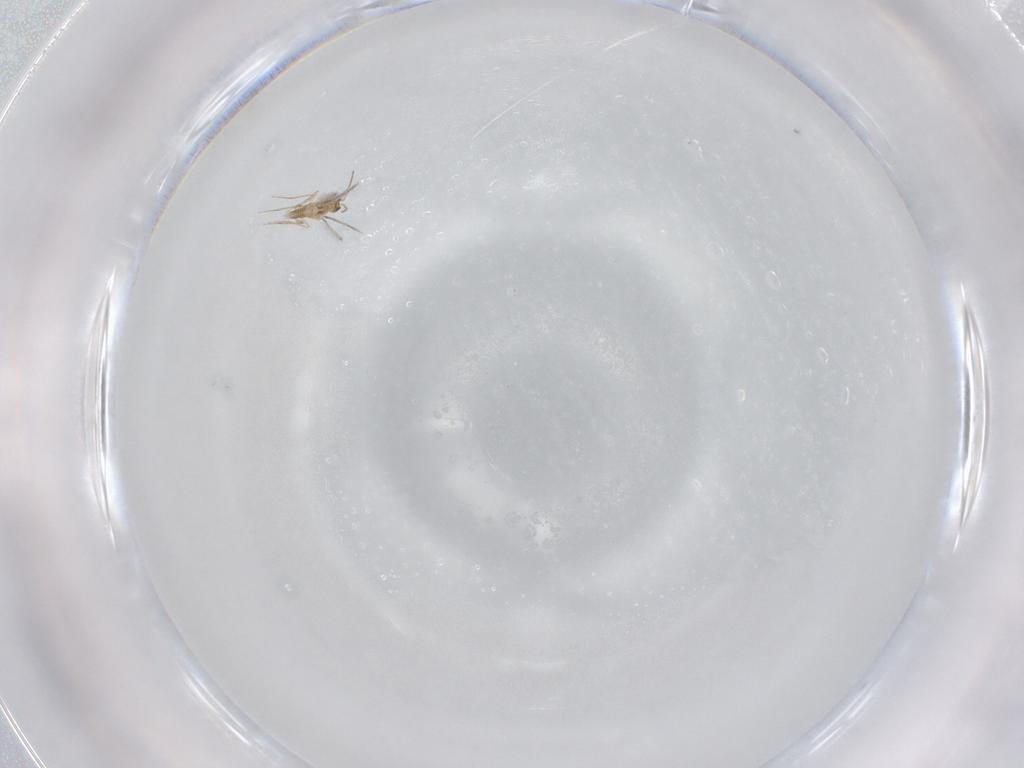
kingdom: Animalia
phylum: Arthropoda
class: Insecta
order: Hymenoptera
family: Mymaridae
